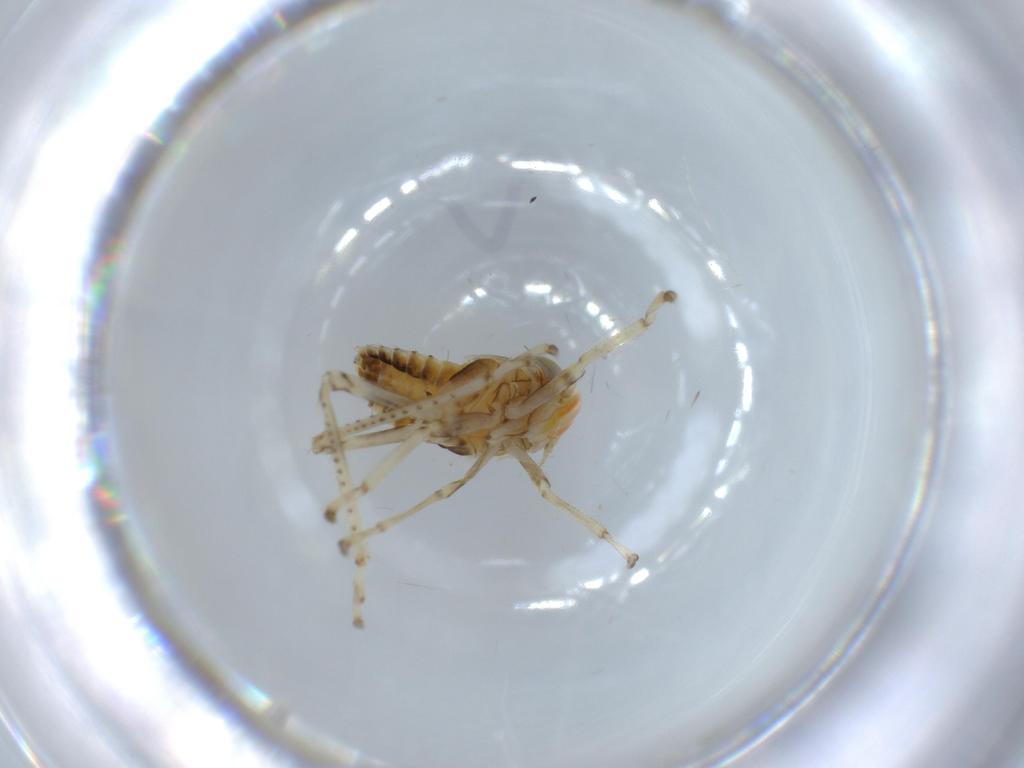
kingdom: Animalia
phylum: Arthropoda
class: Insecta
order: Hemiptera
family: Cicadellidae
